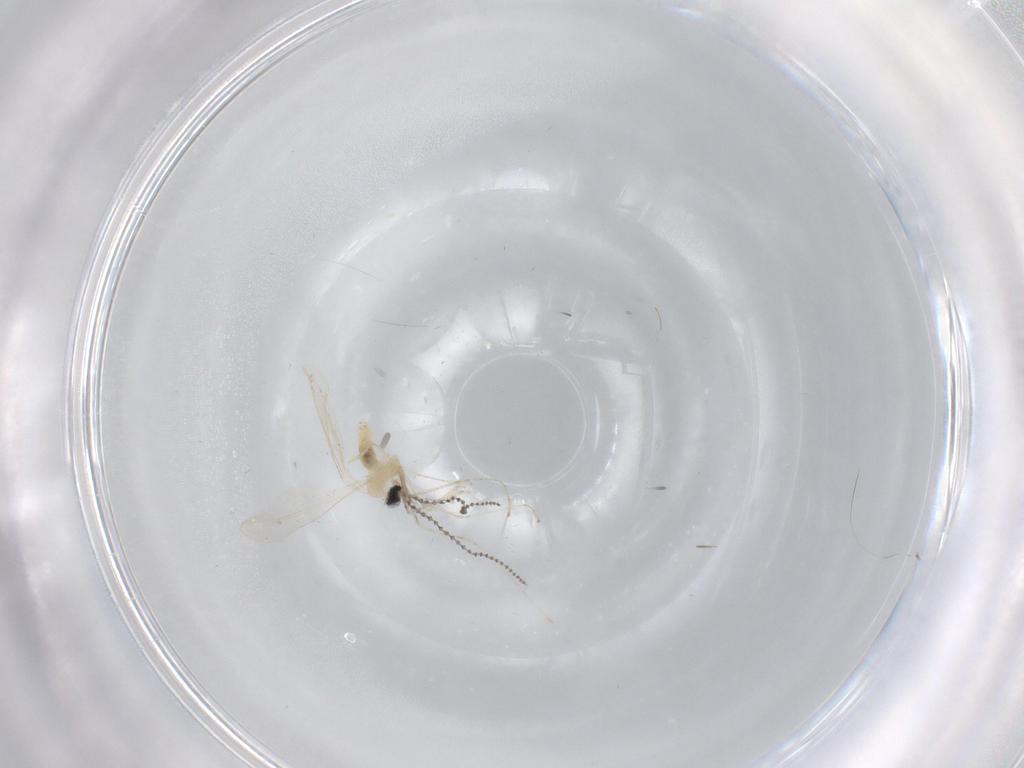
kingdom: Animalia
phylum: Arthropoda
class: Insecta
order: Diptera
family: Cecidomyiidae
